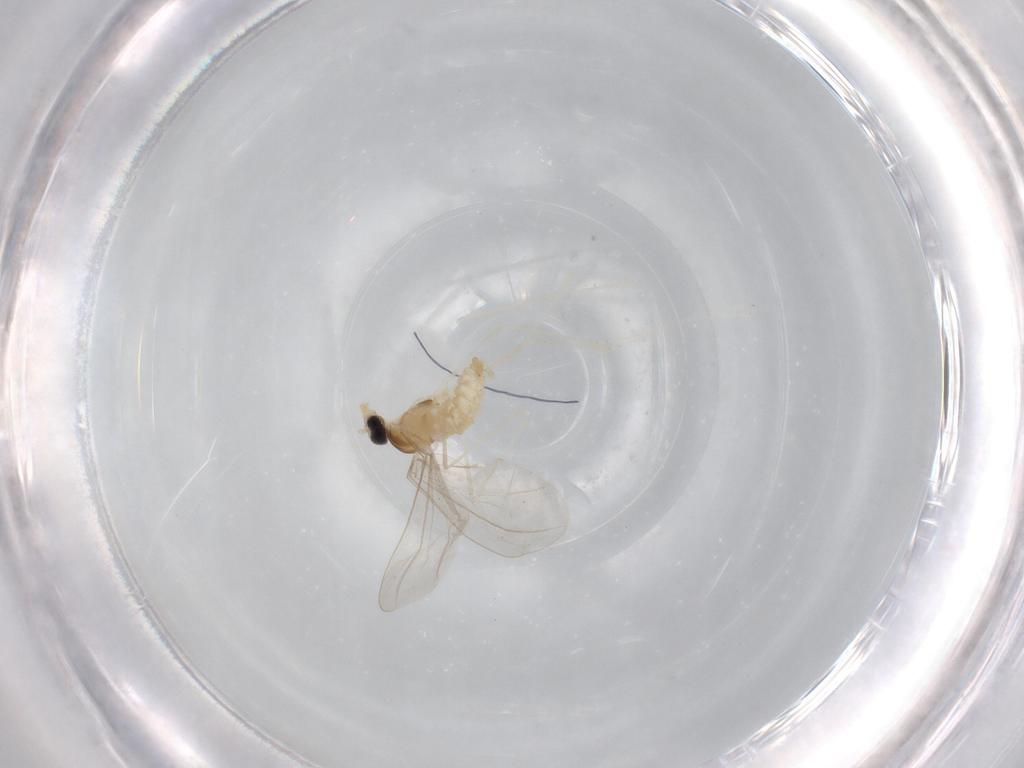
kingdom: Animalia
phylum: Arthropoda
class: Insecta
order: Diptera
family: Cecidomyiidae
